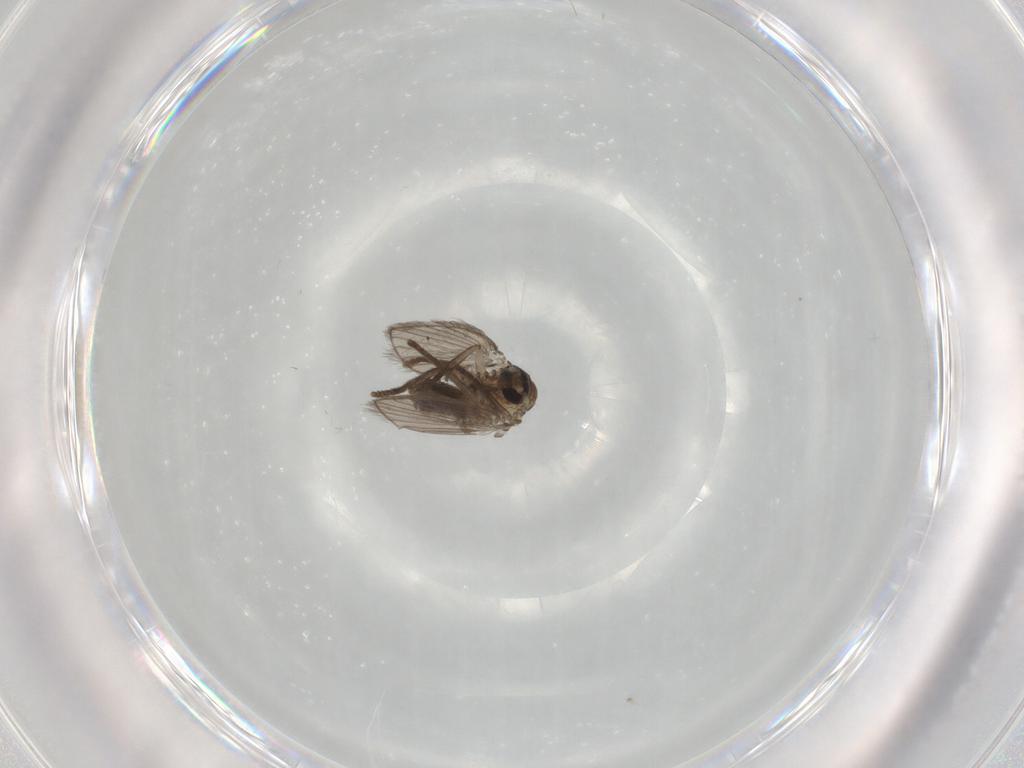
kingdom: Animalia
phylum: Arthropoda
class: Insecta
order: Diptera
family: Psychodidae
